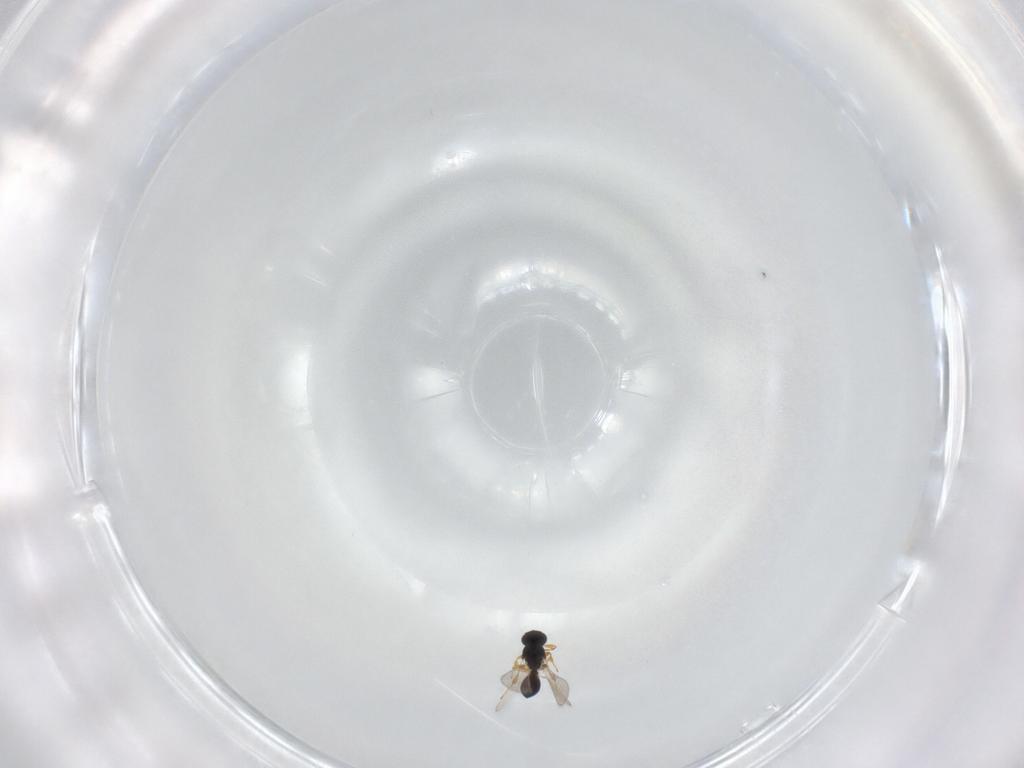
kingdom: Animalia
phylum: Arthropoda
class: Insecta
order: Hymenoptera
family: Platygastridae
